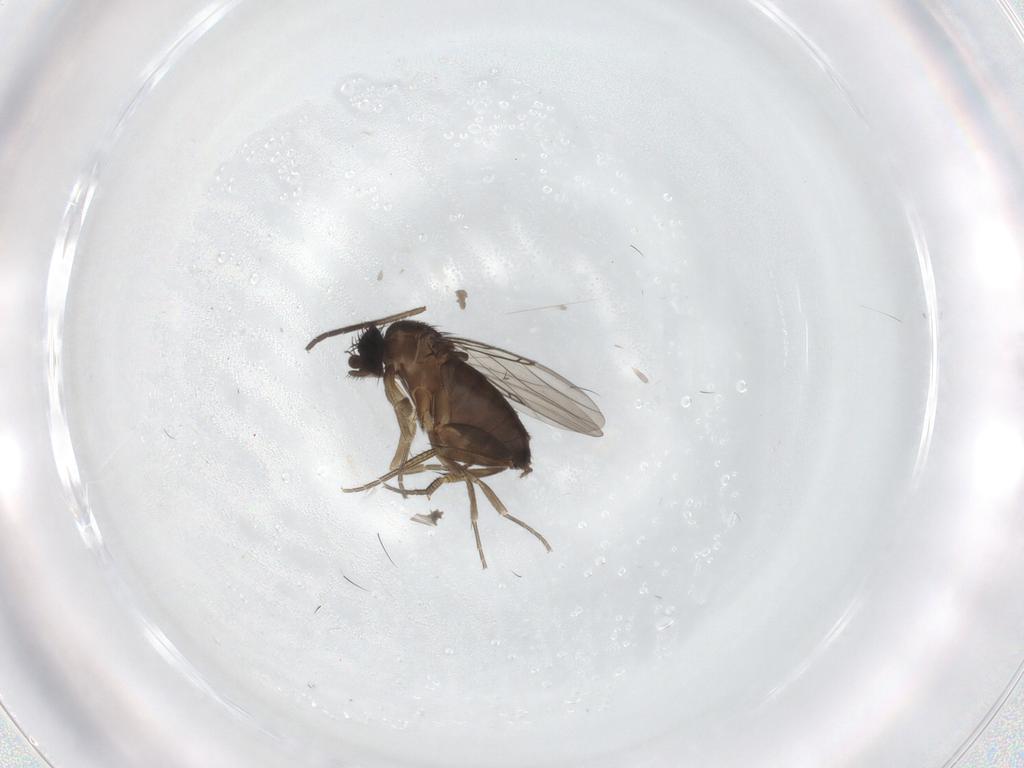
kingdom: Animalia
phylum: Arthropoda
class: Insecta
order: Diptera
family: Phoridae
